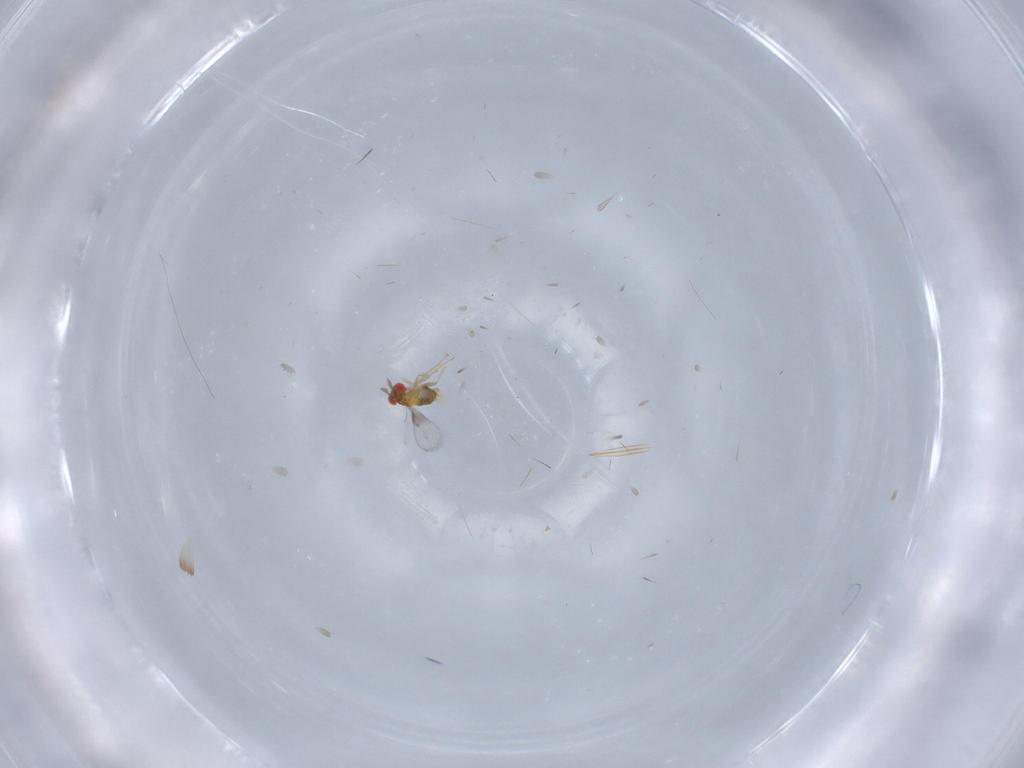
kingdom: Animalia
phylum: Arthropoda
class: Insecta
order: Hymenoptera
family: Trichogrammatidae
